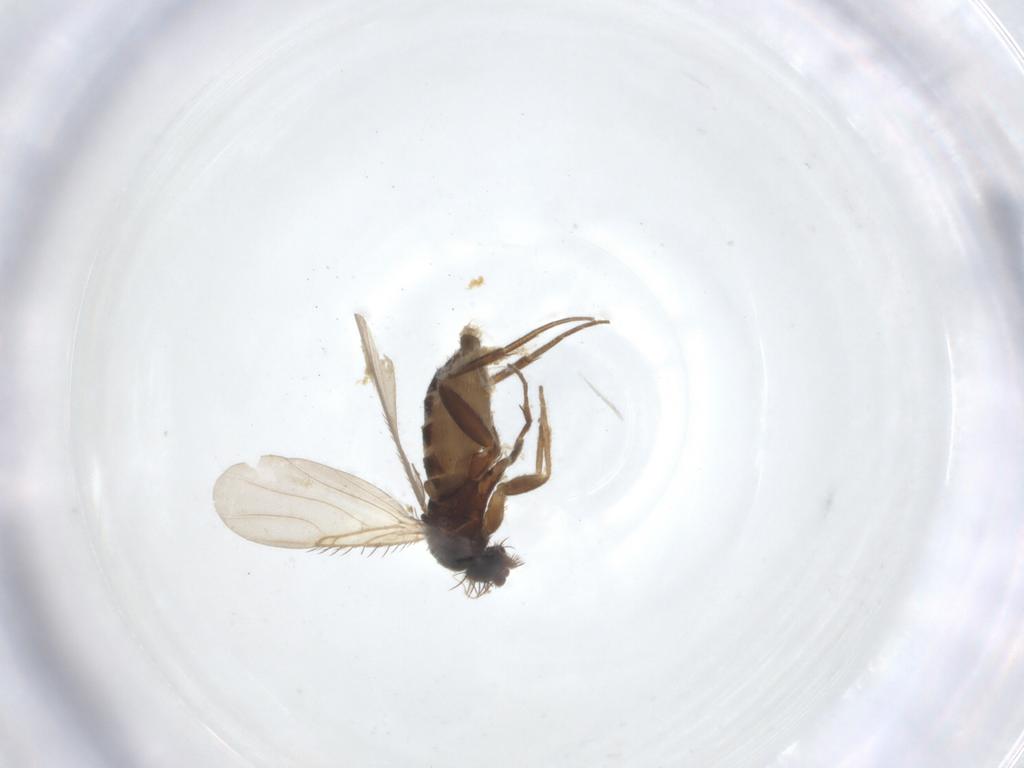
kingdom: Animalia
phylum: Arthropoda
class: Insecta
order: Diptera
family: Phoridae
